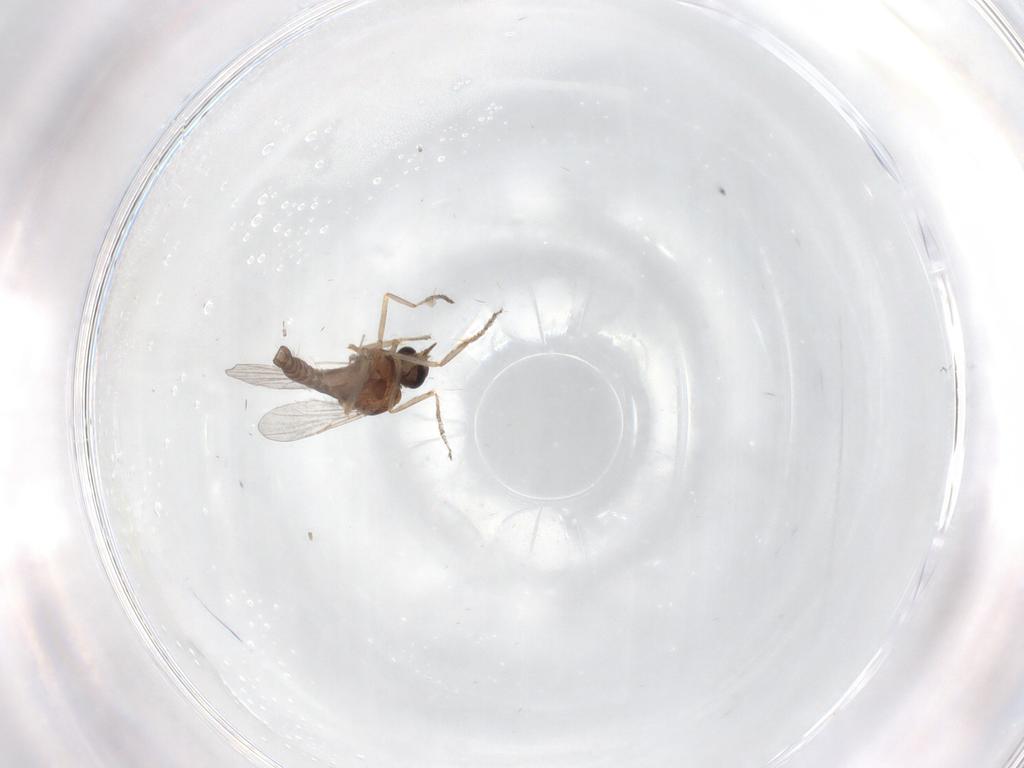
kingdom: Animalia
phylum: Arthropoda
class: Insecta
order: Diptera
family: Ceratopogonidae
